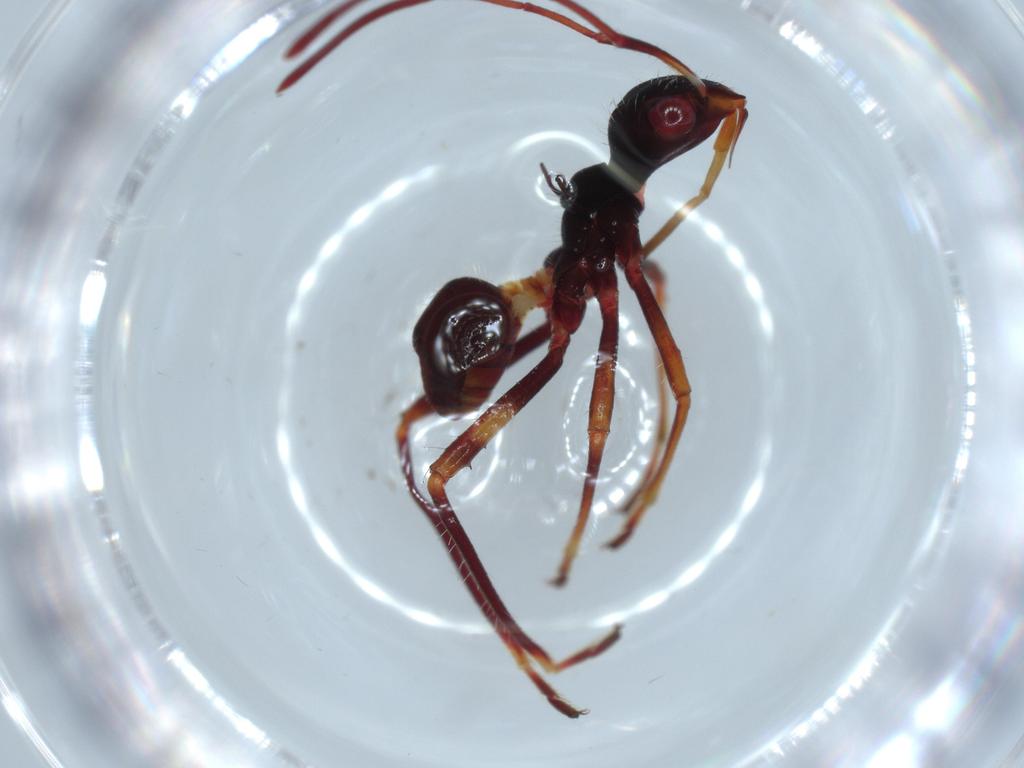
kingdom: Animalia
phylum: Arthropoda
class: Insecta
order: Hemiptera
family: Alydidae
